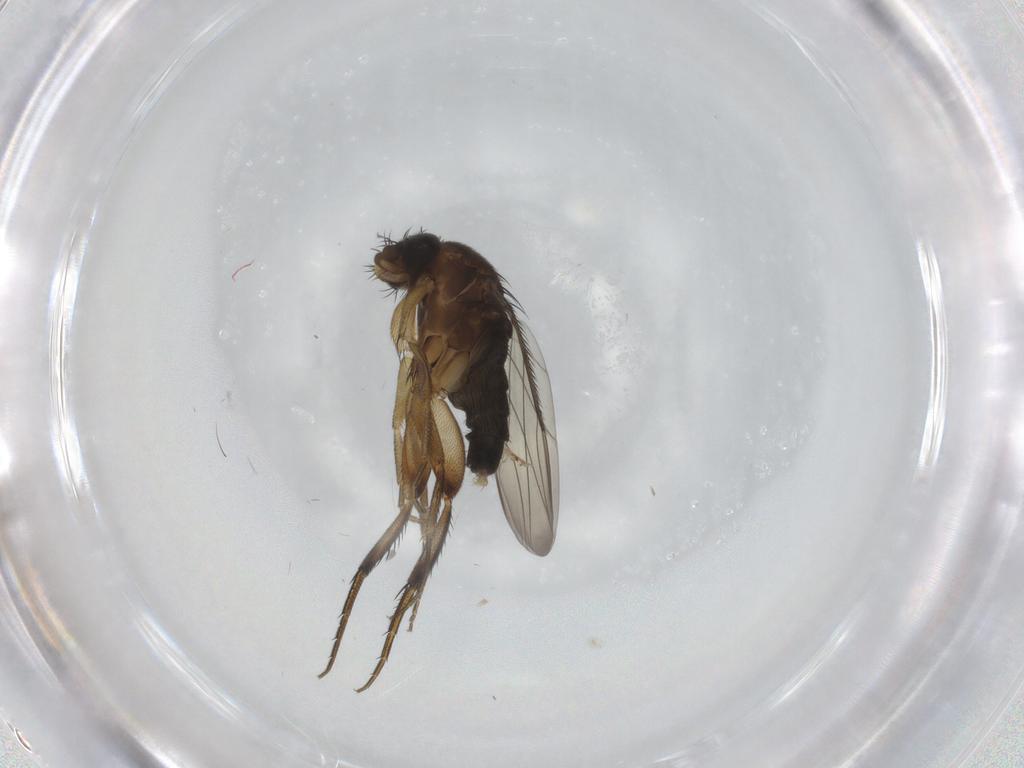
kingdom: Animalia
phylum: Arthropoda
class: Insecta
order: Diptera
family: Phoridae
